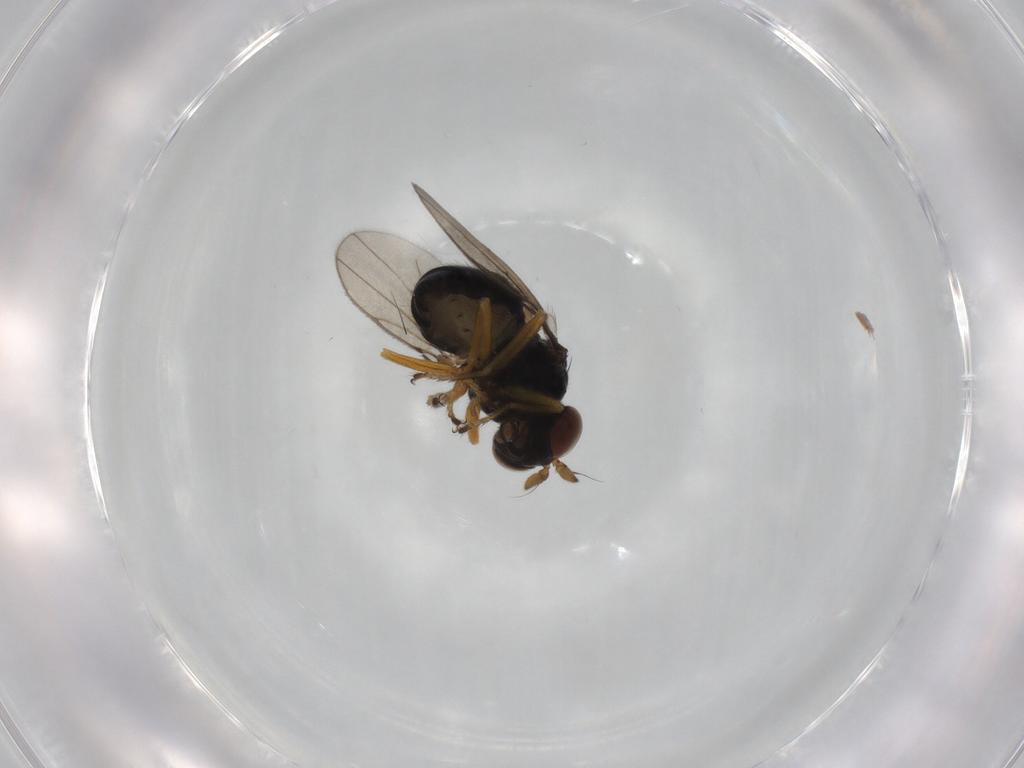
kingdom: Animalia
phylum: Arthropoda
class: Insecta
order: Diptera
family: Ephydridae
